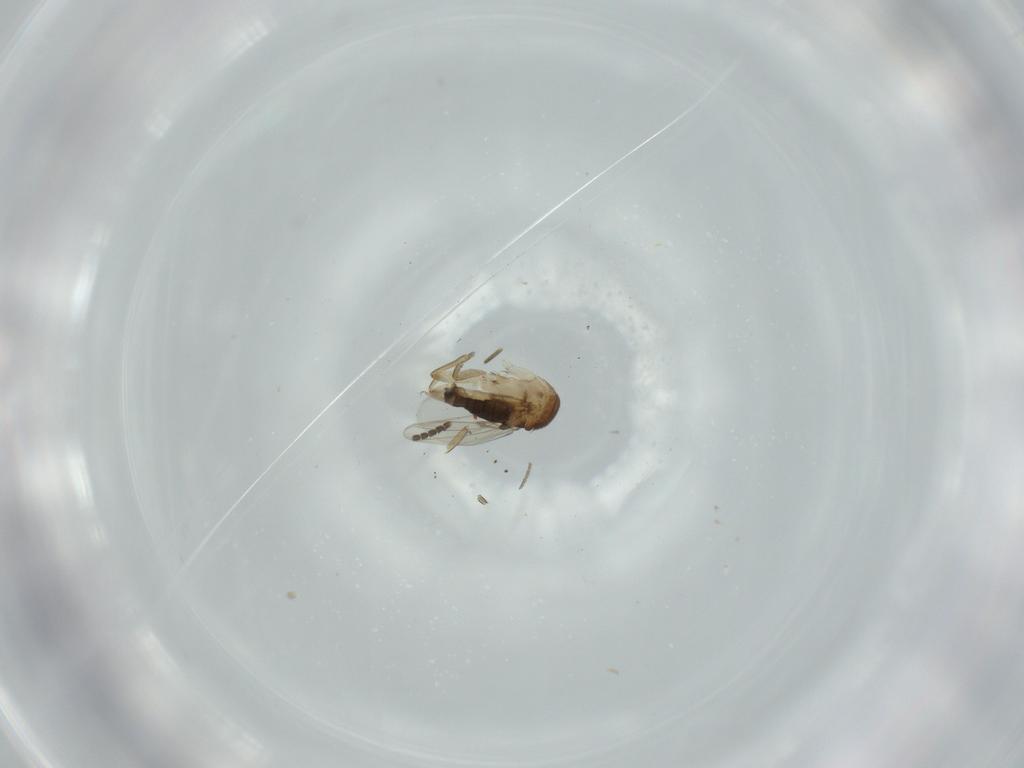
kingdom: Animalia
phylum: Arthropoda
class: Insecta
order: Diptera
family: Phoridae
